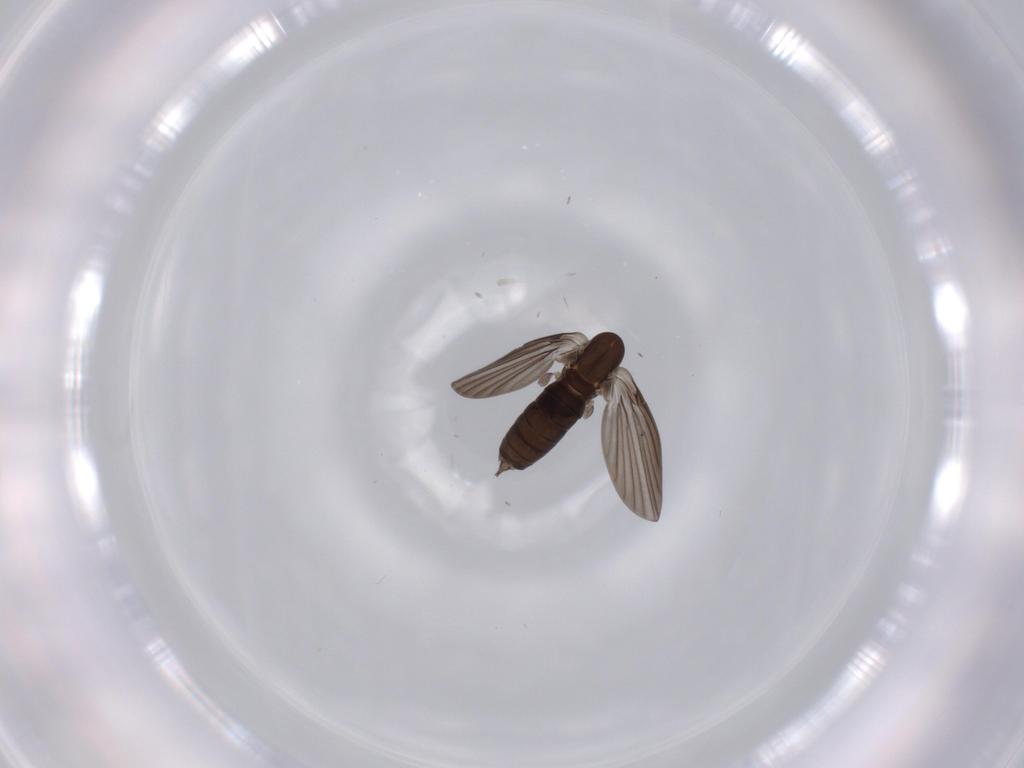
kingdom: Animalia
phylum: Arthropoda
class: Insecta
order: Diptera
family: Milichiidae
